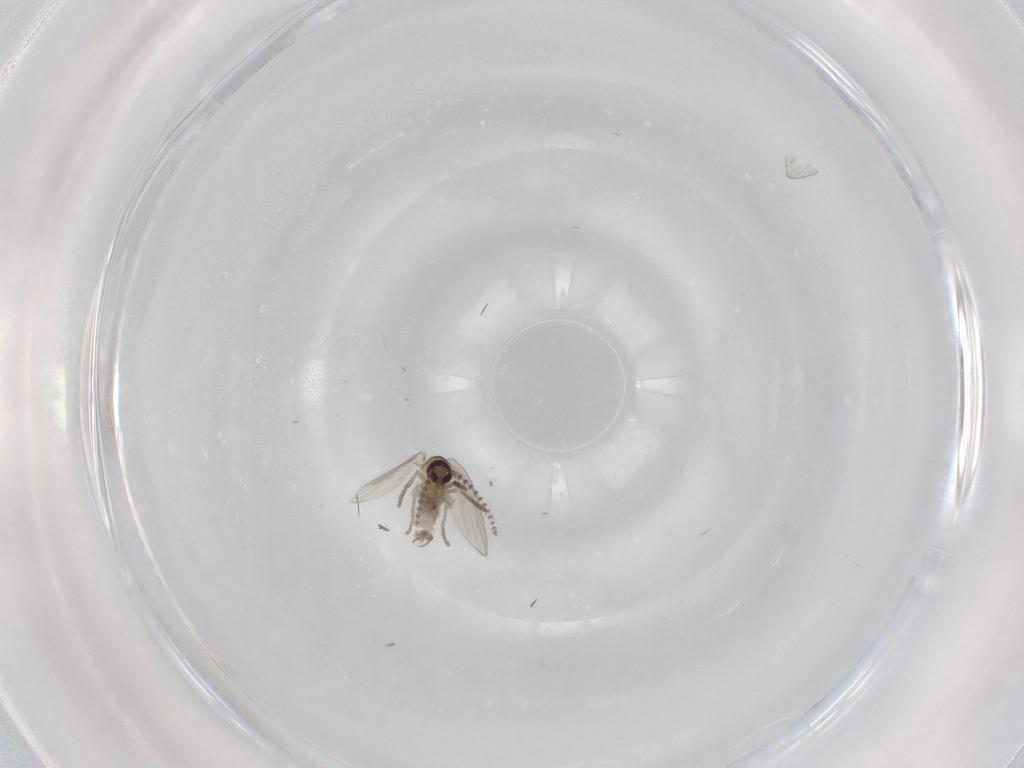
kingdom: Animalia
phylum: Arthropoda
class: Insecta
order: Diptera
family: Psychodidae
